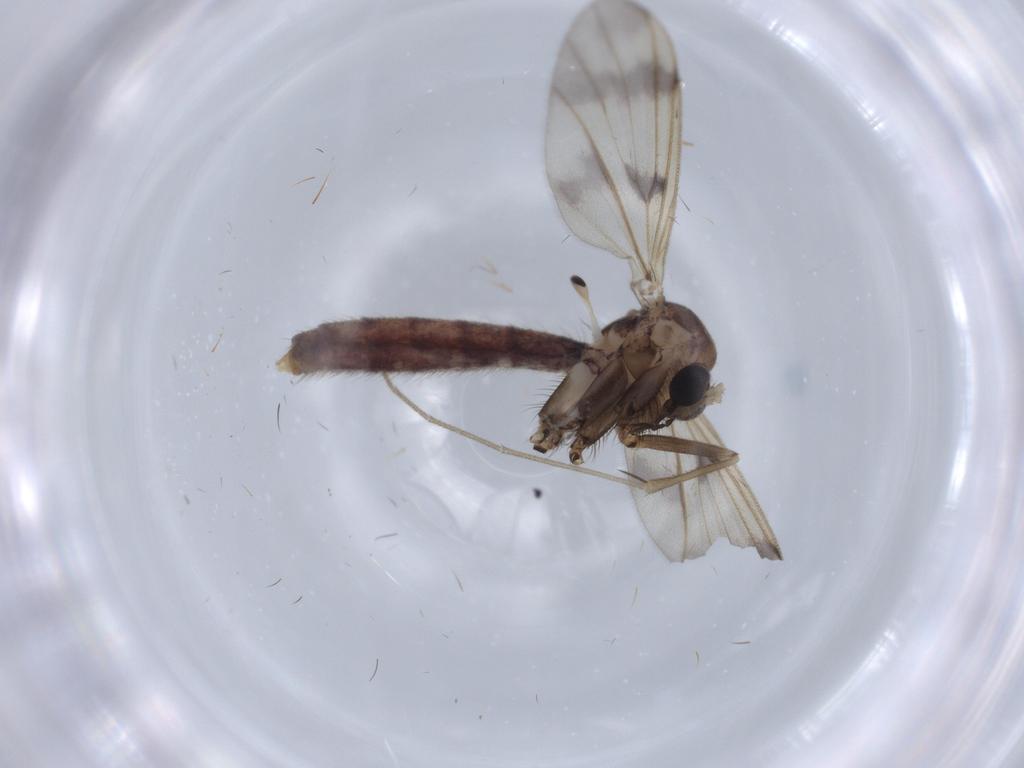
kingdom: Animalia
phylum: Arthropoda
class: Insecta
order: Diptera
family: Mycetophilidae
